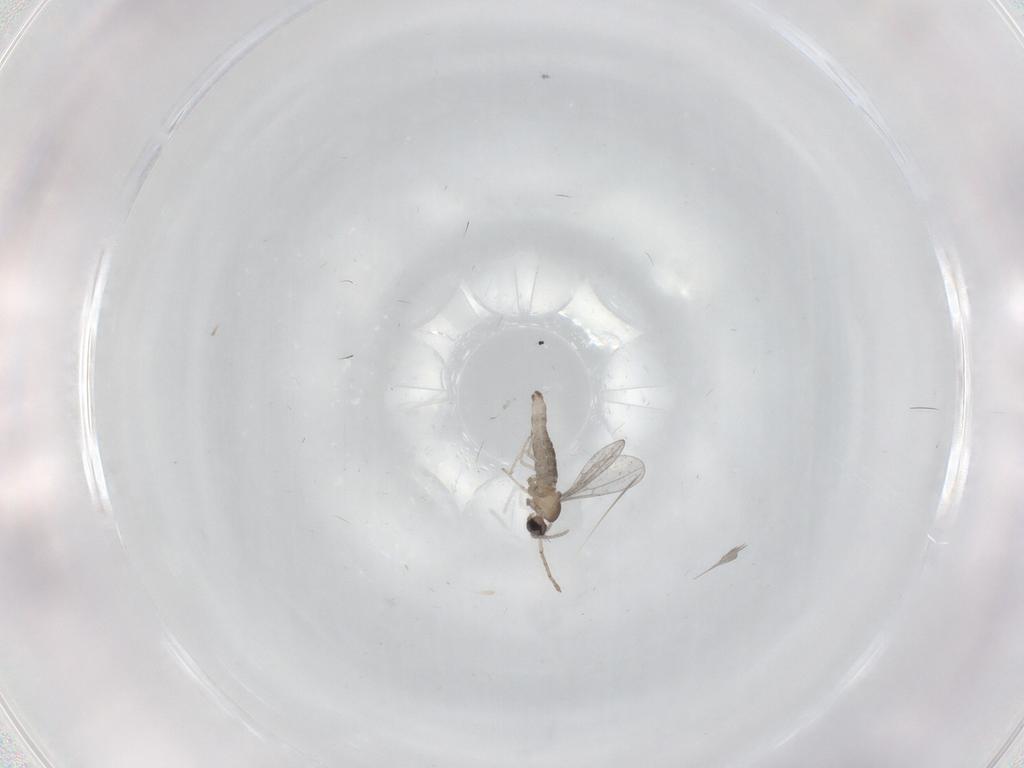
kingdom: Animalia
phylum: Arthropoda
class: Insecta
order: Diptera
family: Cecidomyiidae
